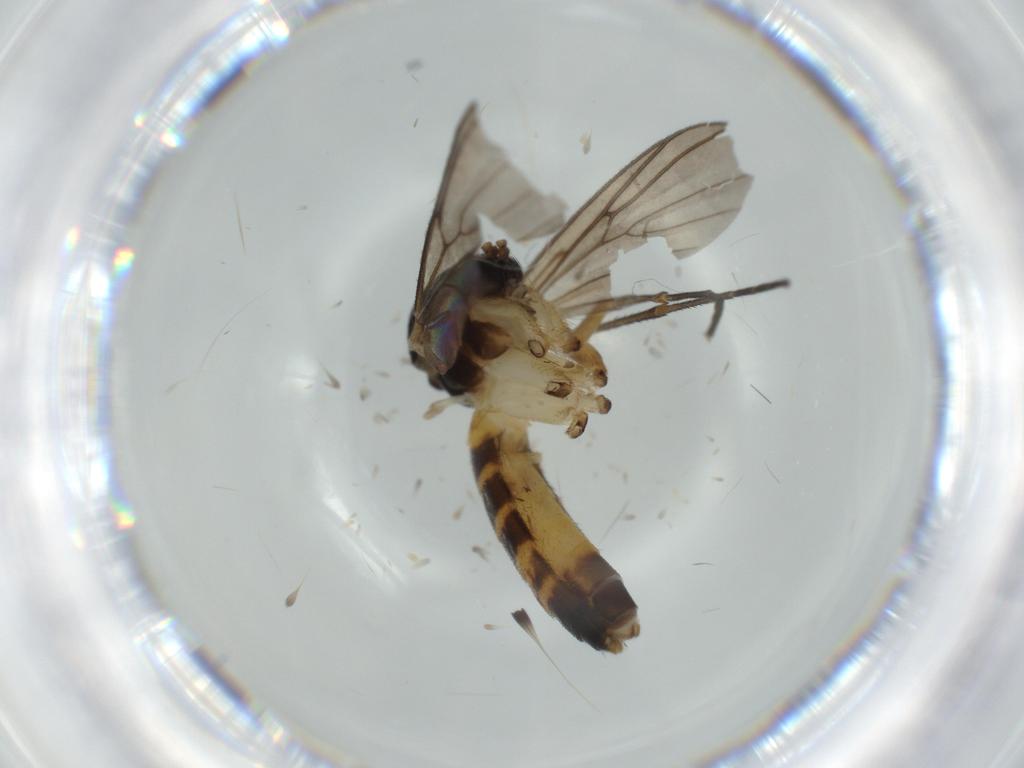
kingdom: Animalia
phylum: Arthropoda
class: Insecta
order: Diptera
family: Mycetophilidae
